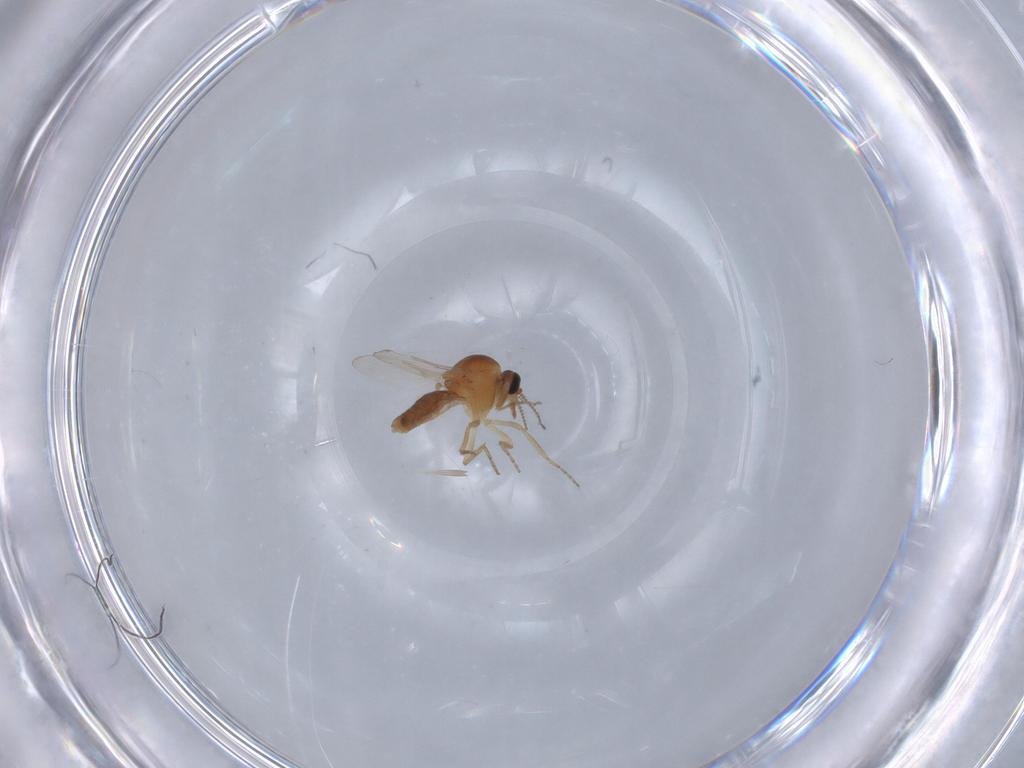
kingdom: Animalia
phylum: Arthropoda
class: Insecta
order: Diptera
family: Ceratopogonidae
